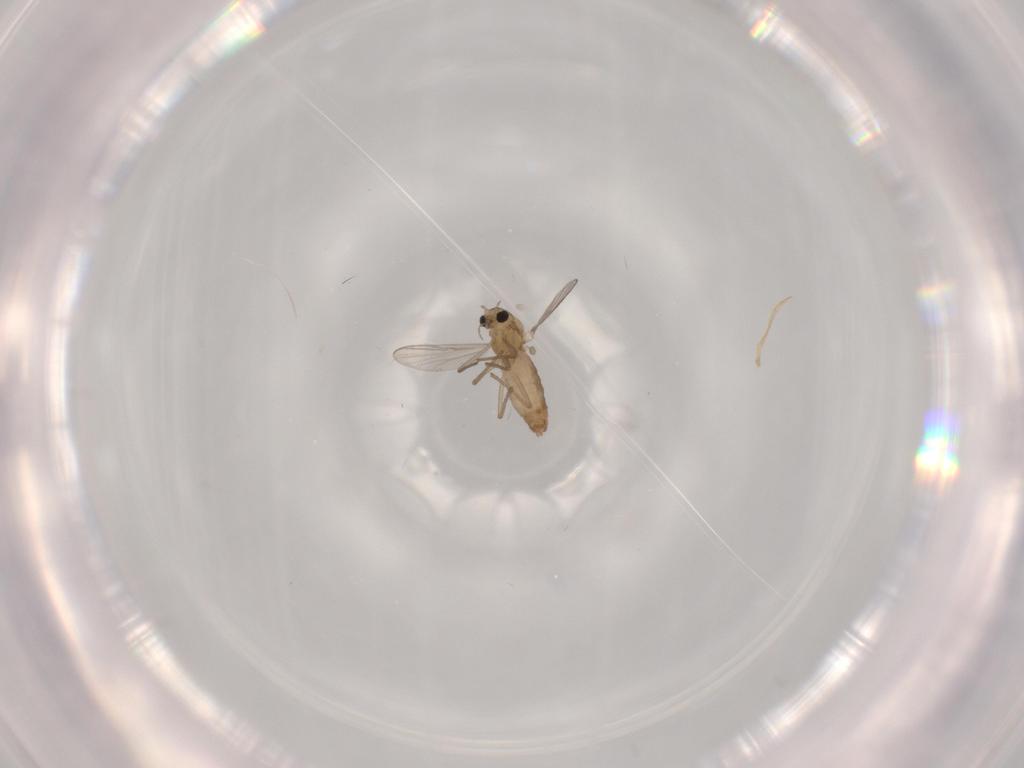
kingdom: Animalia
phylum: Arthropoda
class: Insecta
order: Diptera
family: Chironomidae
